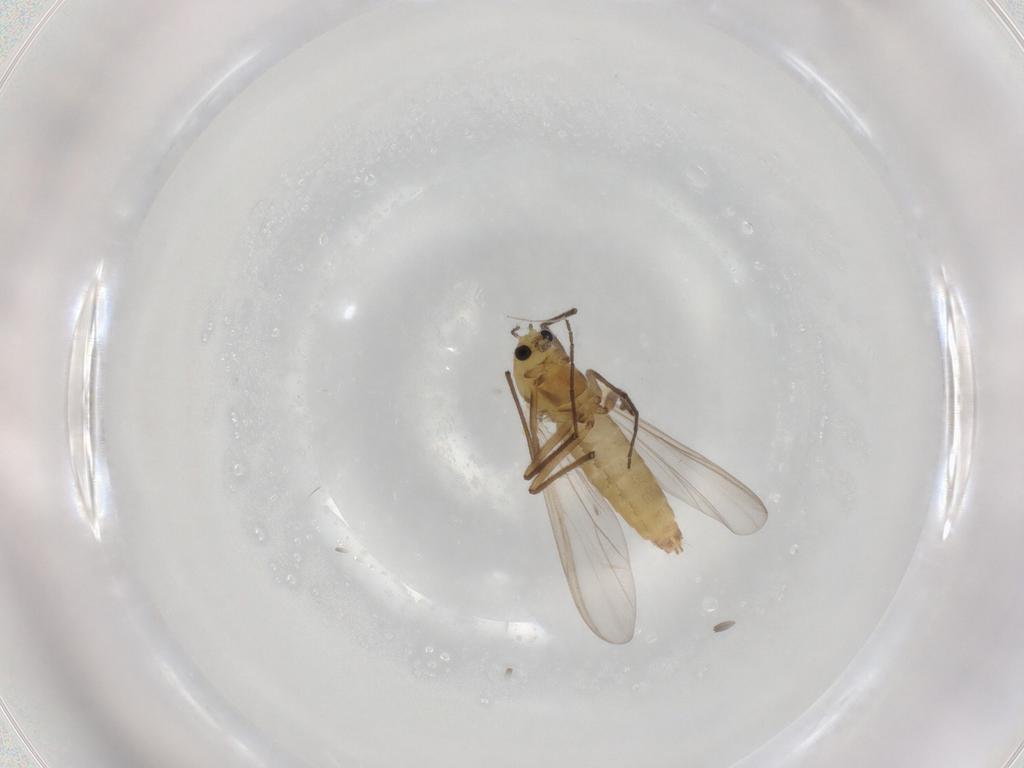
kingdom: Animalia
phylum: Arthropoda
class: Insecta
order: Diptera
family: Chironomidae
